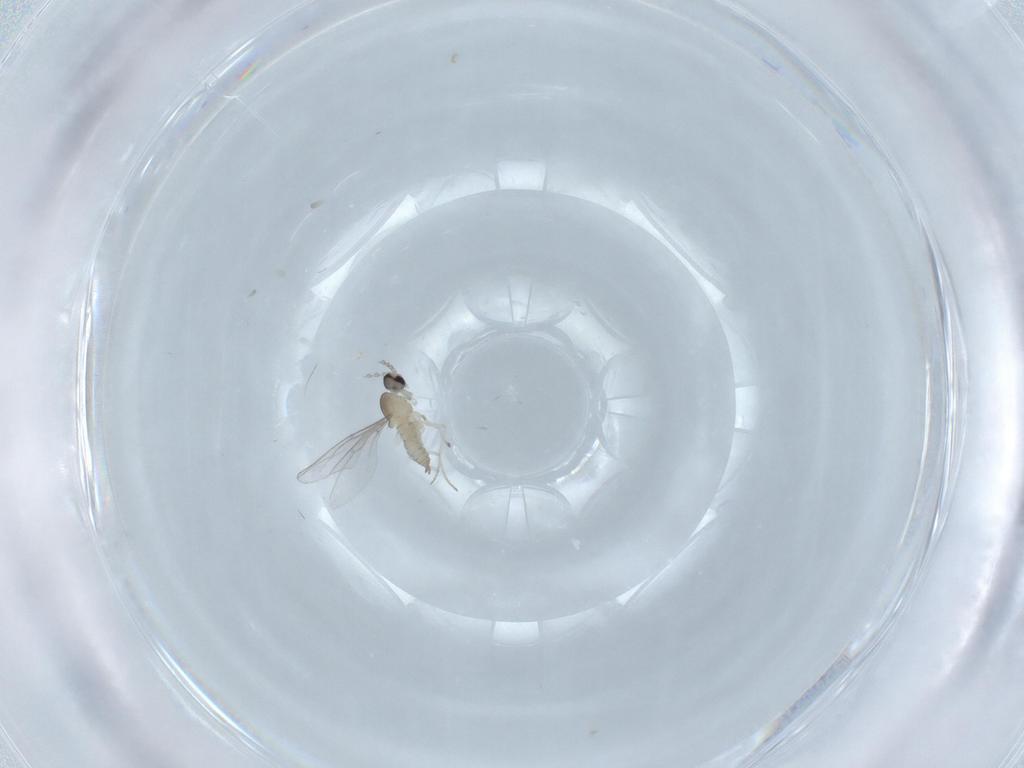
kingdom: Animalia
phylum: Arthropoda
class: Insecta
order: Diptera
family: Cecidomyiidae
